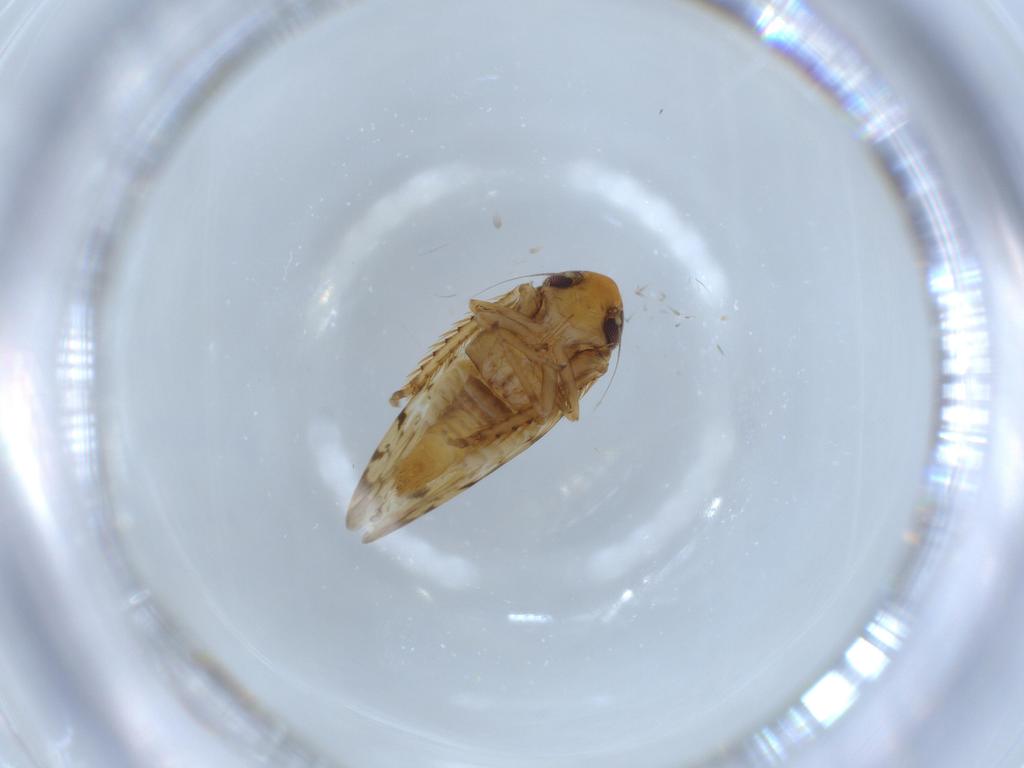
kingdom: Animalia
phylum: Arthropoda
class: Insecta
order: Hemiptera
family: Cicadellidae
